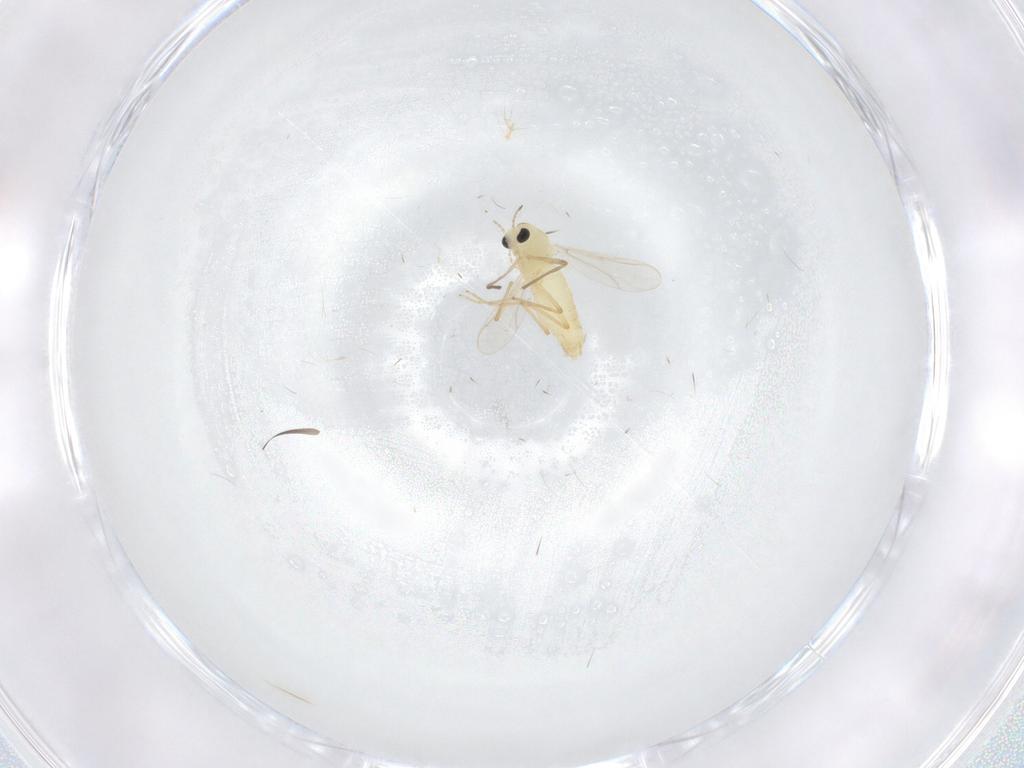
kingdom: Animalia
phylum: Arthropoda
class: Insecta
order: Diptera
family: Chironomidae
